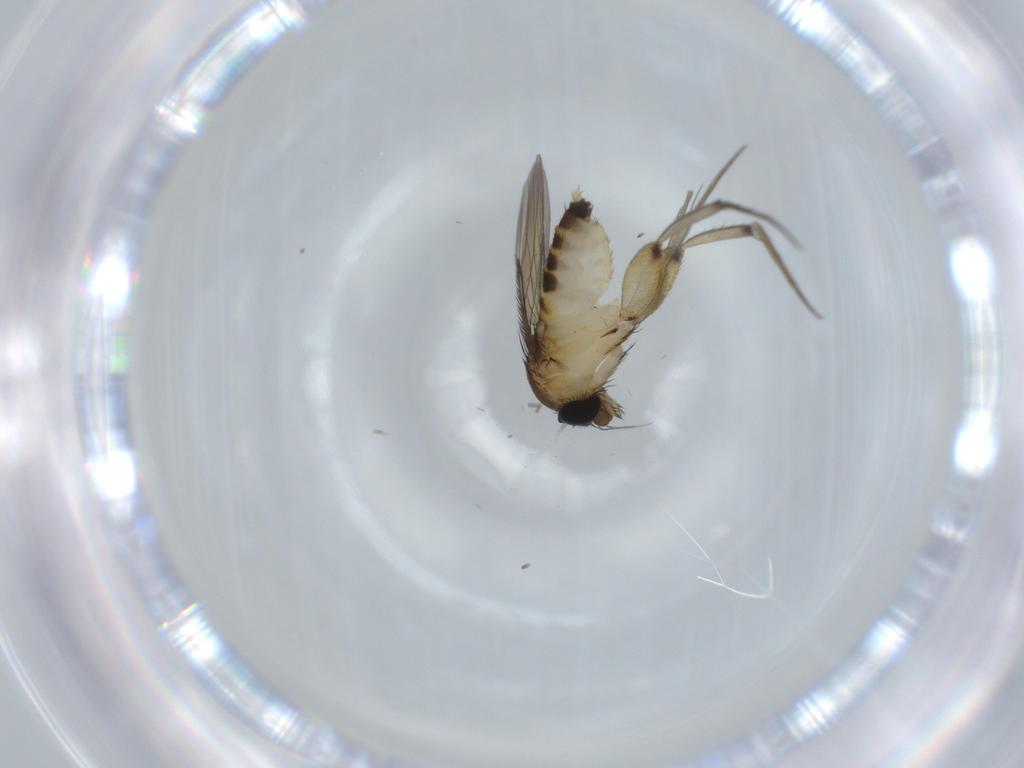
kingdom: Animalia
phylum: Arthropoda
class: Insecta
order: Diptera
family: Phoridae
